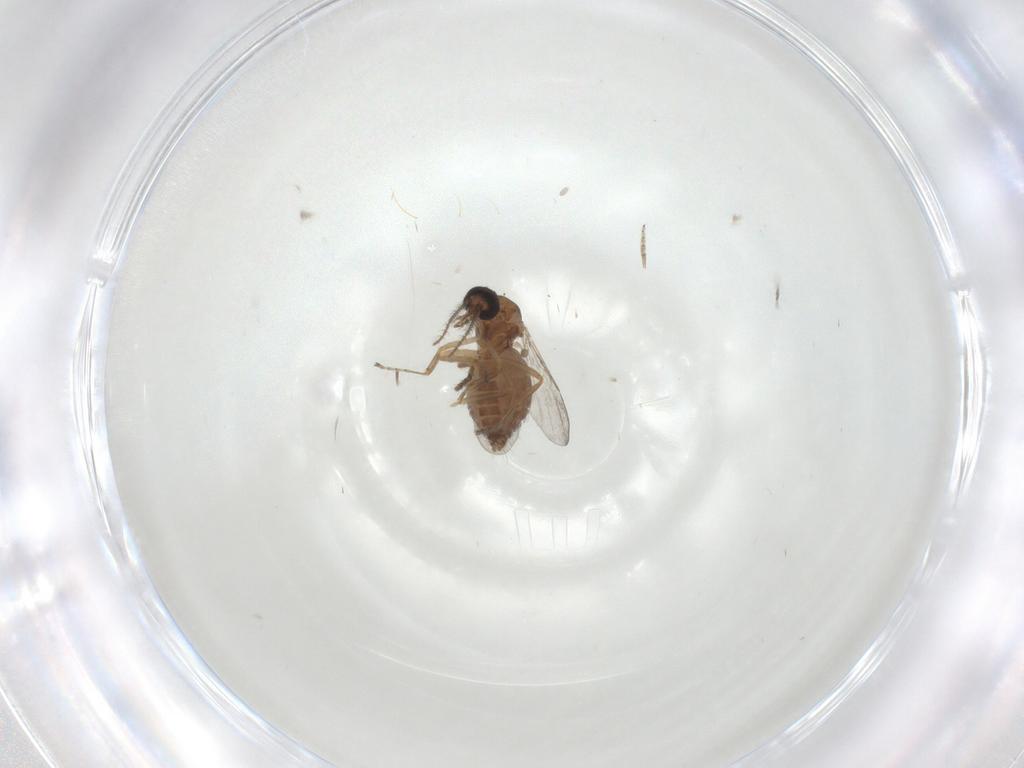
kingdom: Animalia
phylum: Arthropoda
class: Insecta
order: Diptera
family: Ceratopogonidae
